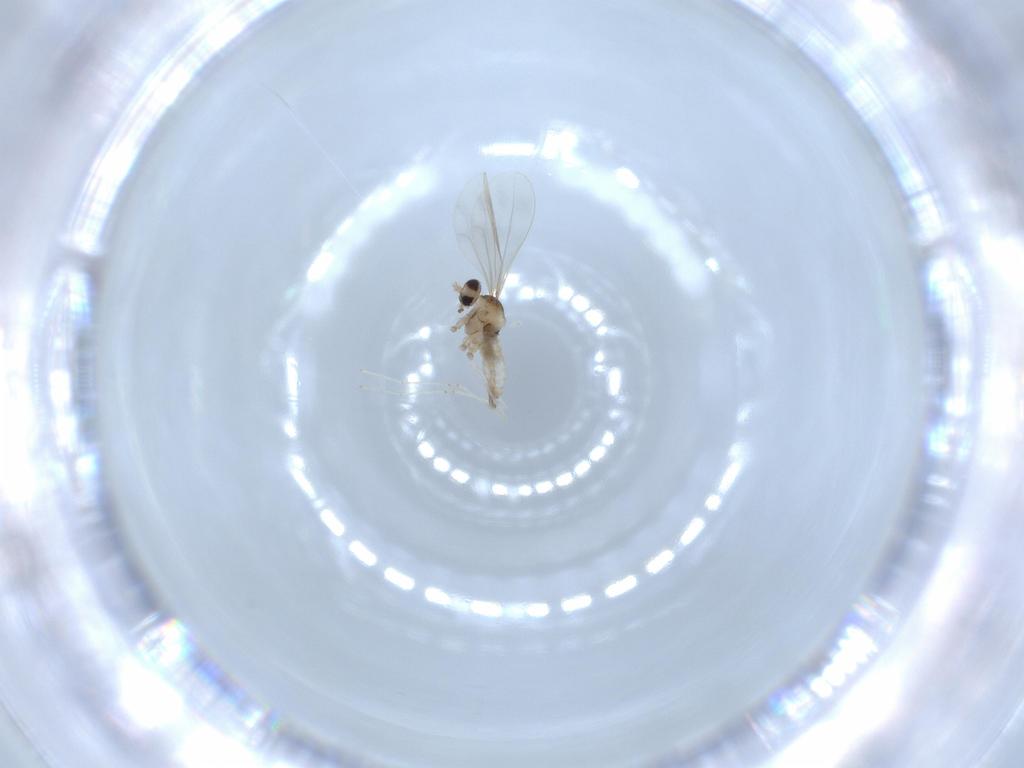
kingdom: Animalia
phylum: Arthropoda
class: Insecta
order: Diptera
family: Cecidomyiidae
